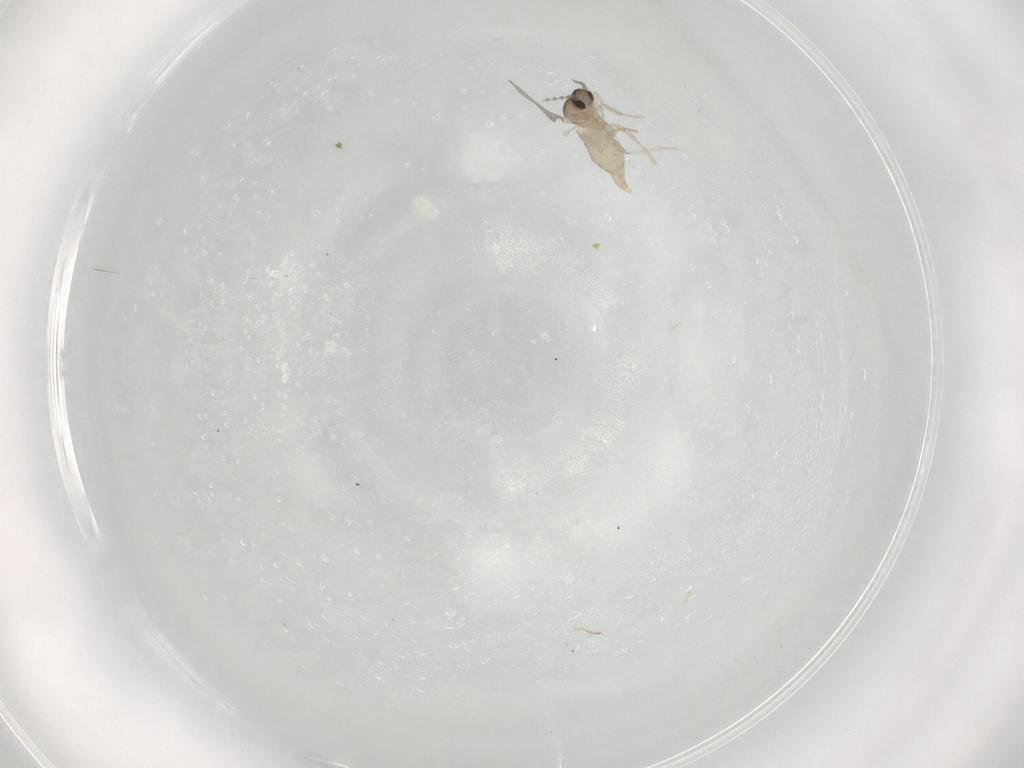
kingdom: Animalia
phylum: Arthropoda
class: Insecta
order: Diptera
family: Cecidomyiidae
